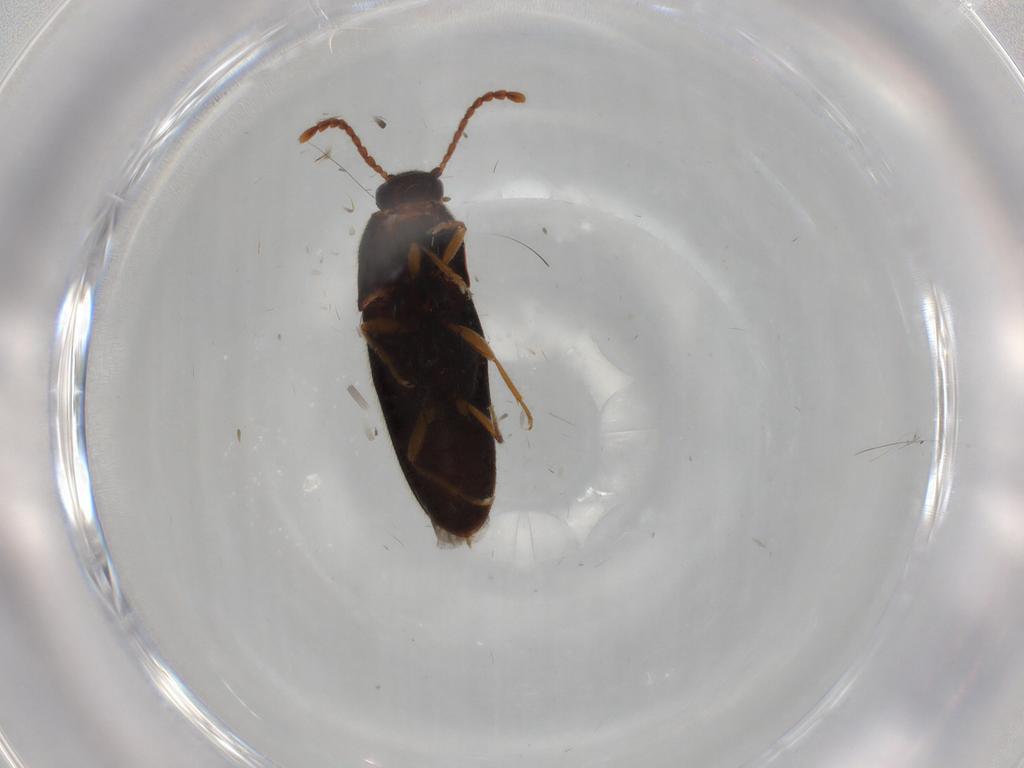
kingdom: Animalia
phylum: Arthropoda
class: Insecta
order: Coleoptera
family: Elateridae
